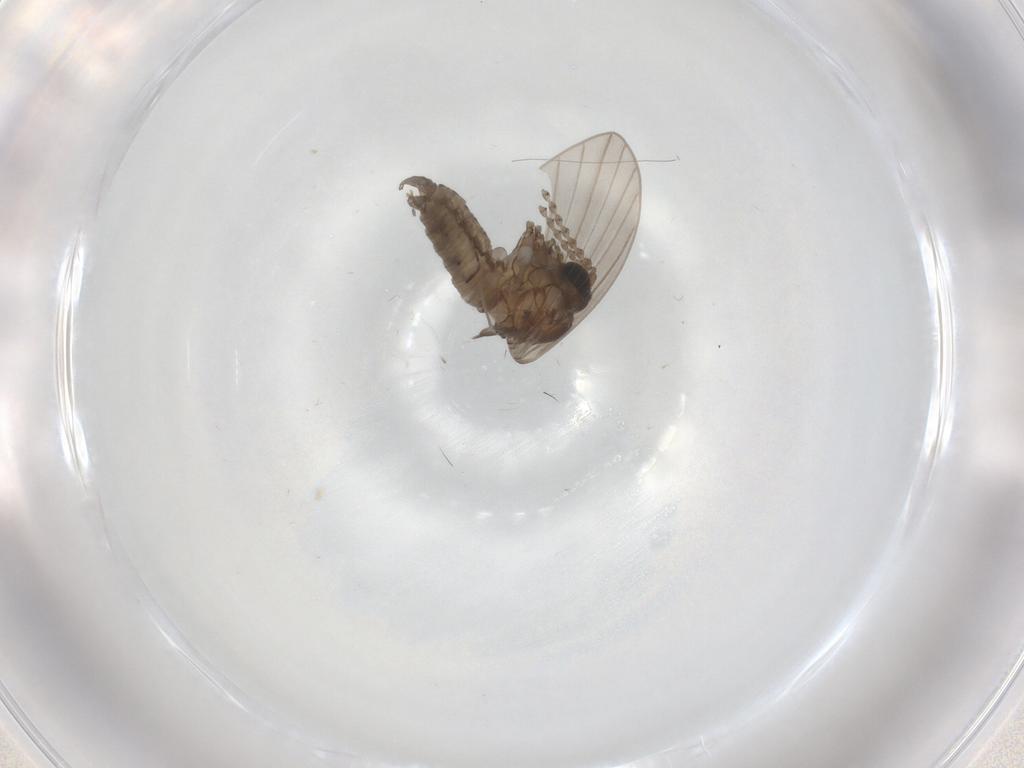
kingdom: Animalia
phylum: Arthropoda
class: Insecta
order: Diptera
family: Psychodidae
